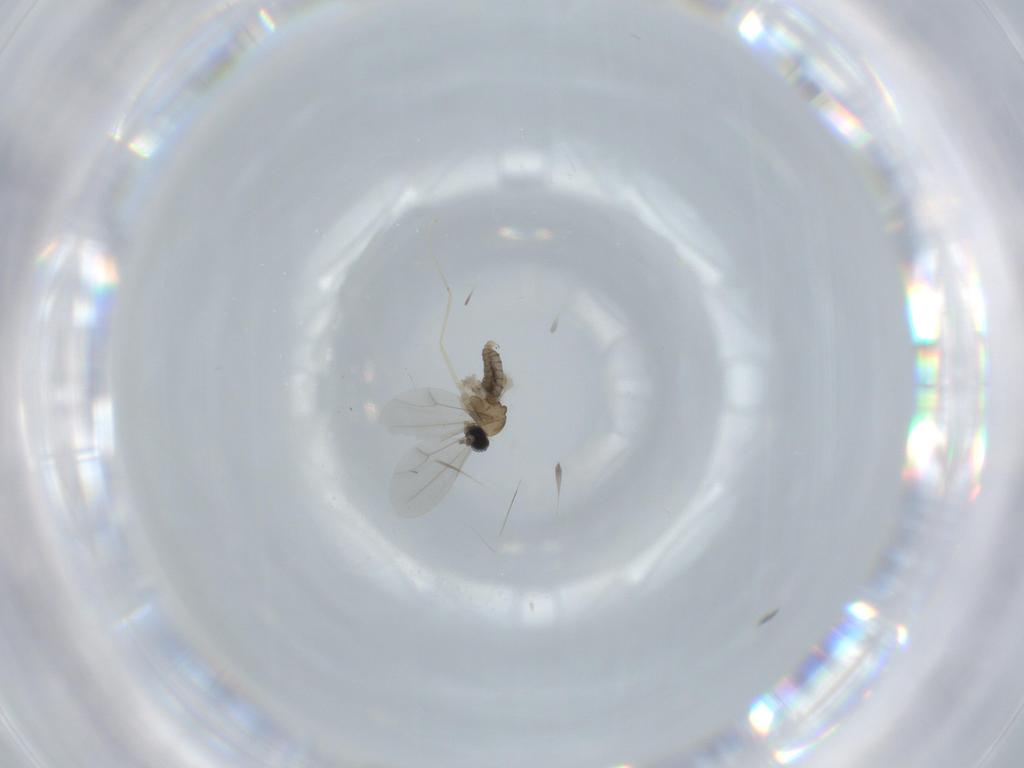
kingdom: Animalia
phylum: Arthropoda
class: Insecta
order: Diptera
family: Cecidomyiidae
